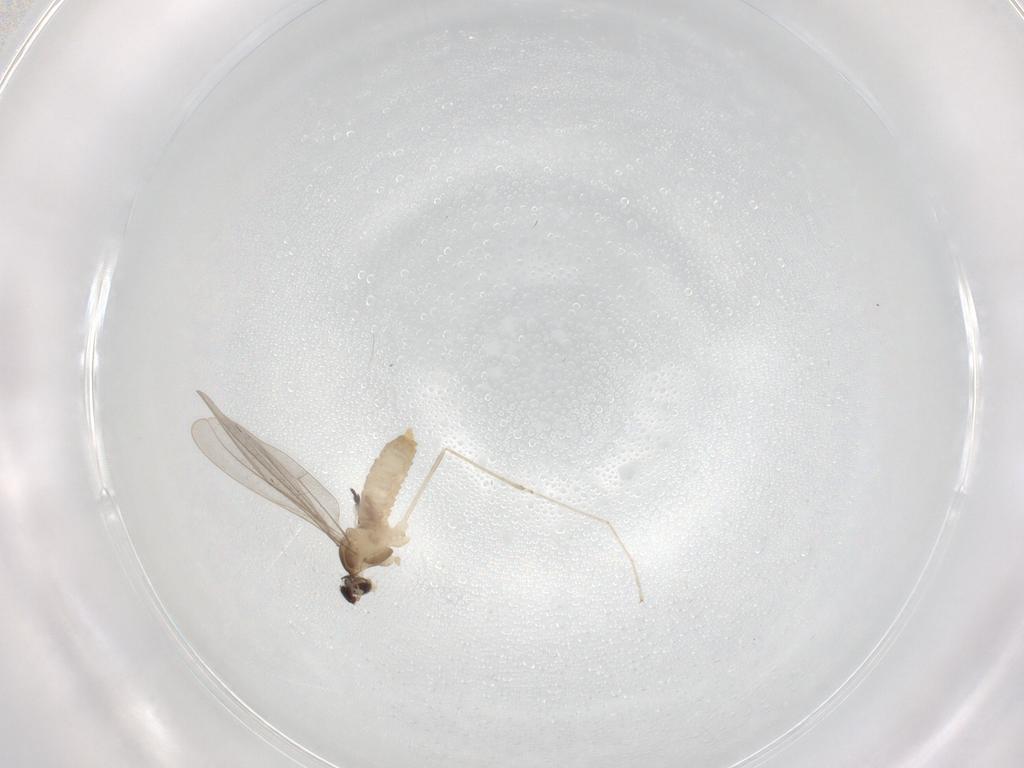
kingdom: Animalia
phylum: Arthropoda
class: Insecta
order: Diptera
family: Cecidomyiidae
